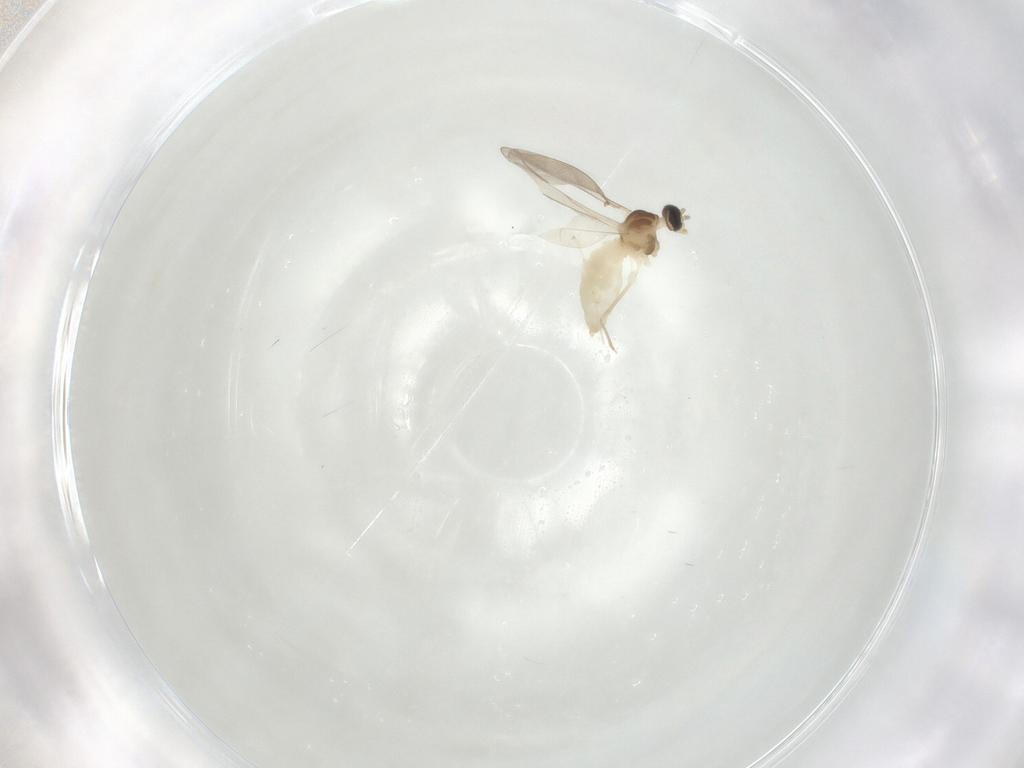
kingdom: Animalia
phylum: Arthropoda
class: Insecta
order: Diptera
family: Cecidomyiidae
